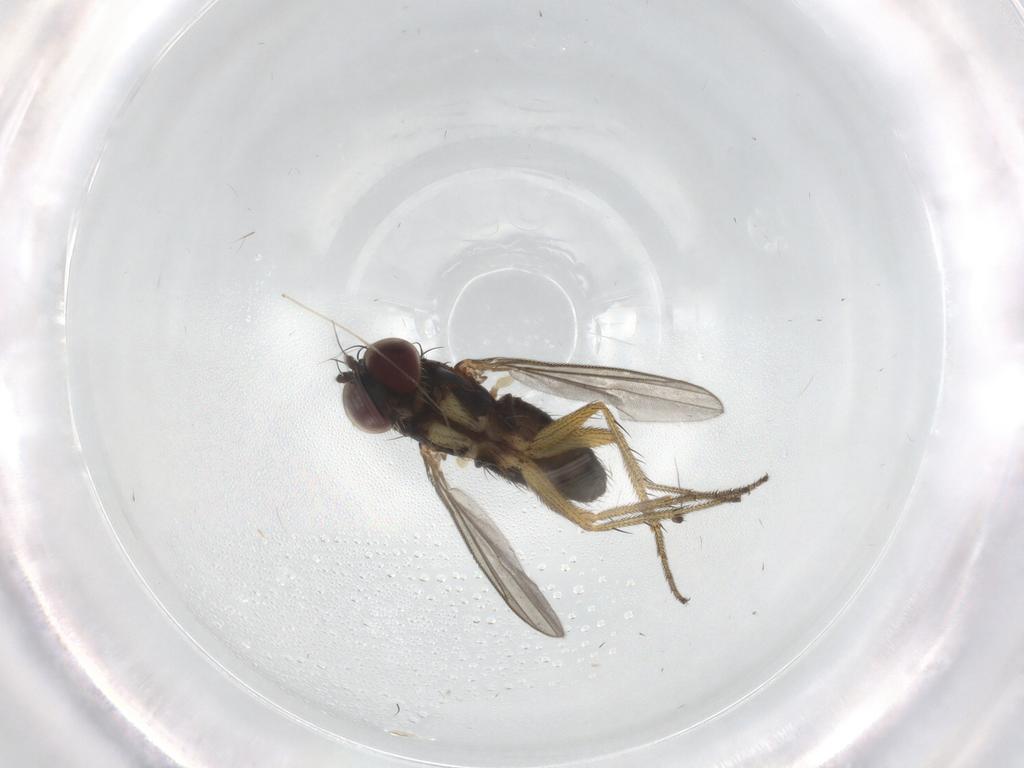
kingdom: Animalia
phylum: Arthropoda
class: Insecta
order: Diptera
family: Dolichopodidae
